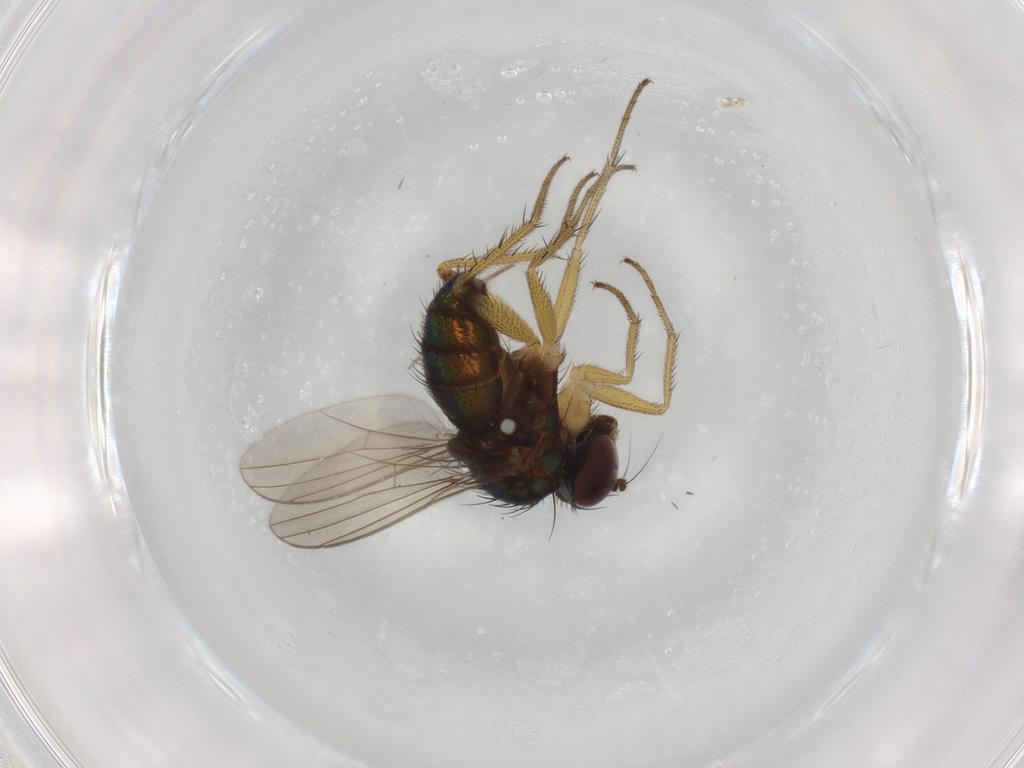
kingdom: Animalia
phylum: Arthropoda
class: Insecta
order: Diptera
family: Dolichopodidae
